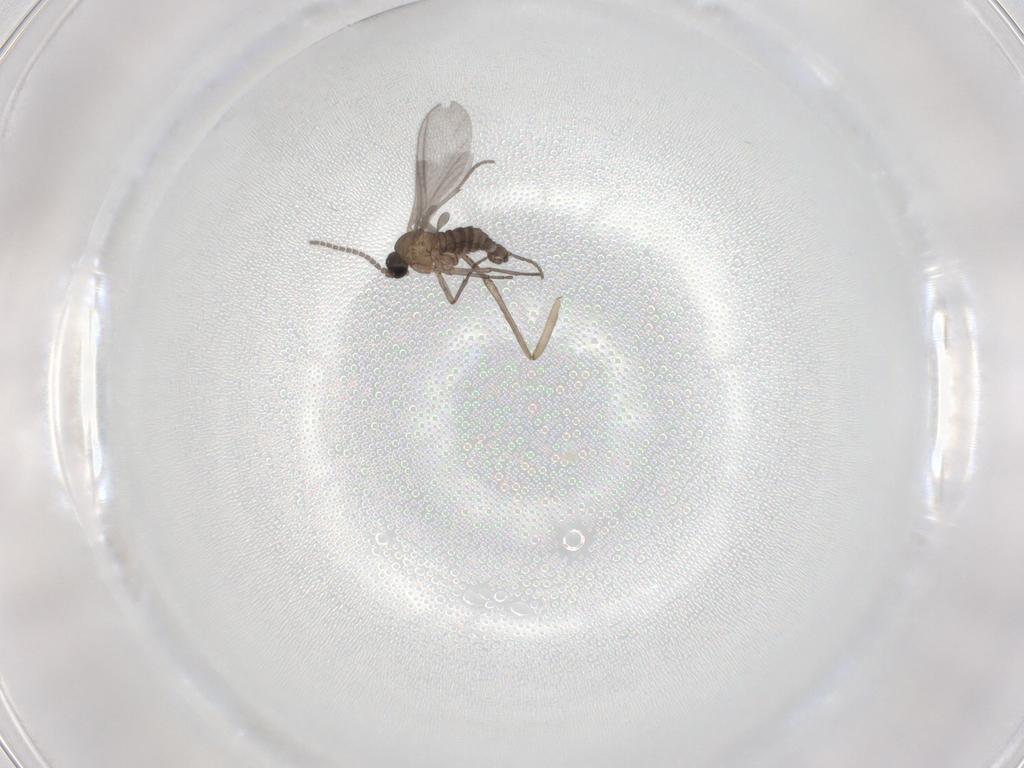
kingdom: Animalia
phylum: Arthropoda
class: Insecta
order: Diptera
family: Sciaridae
